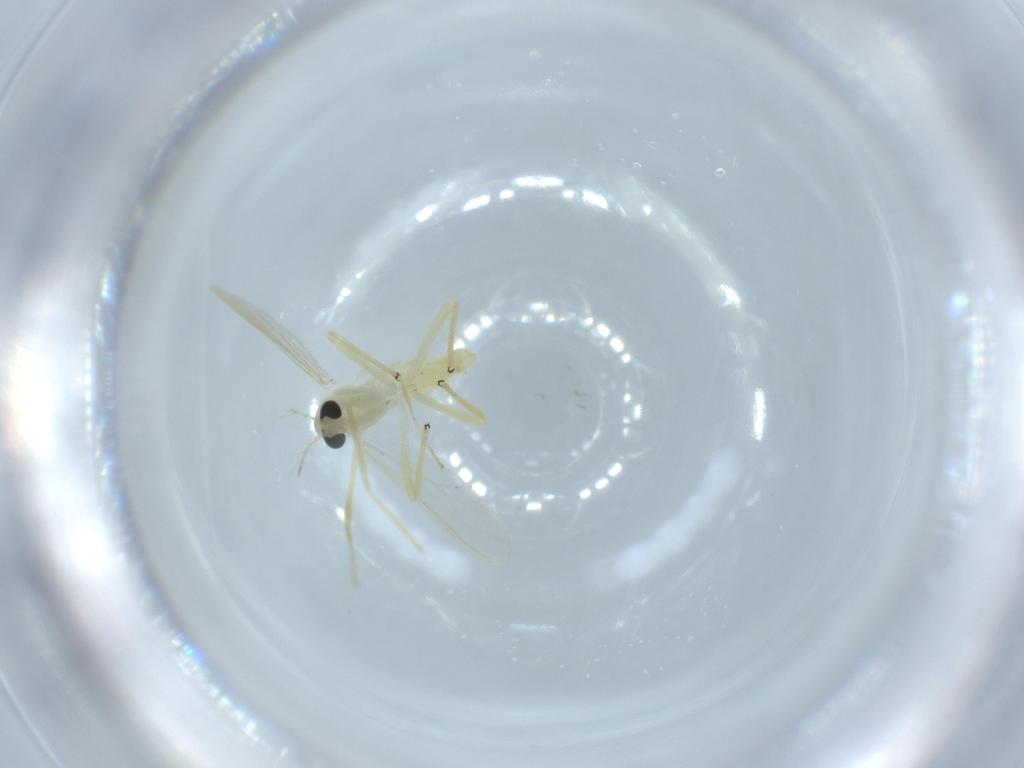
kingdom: Animalia
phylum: Arthropoda
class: Insecta
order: Diptera
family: Chironomidae
